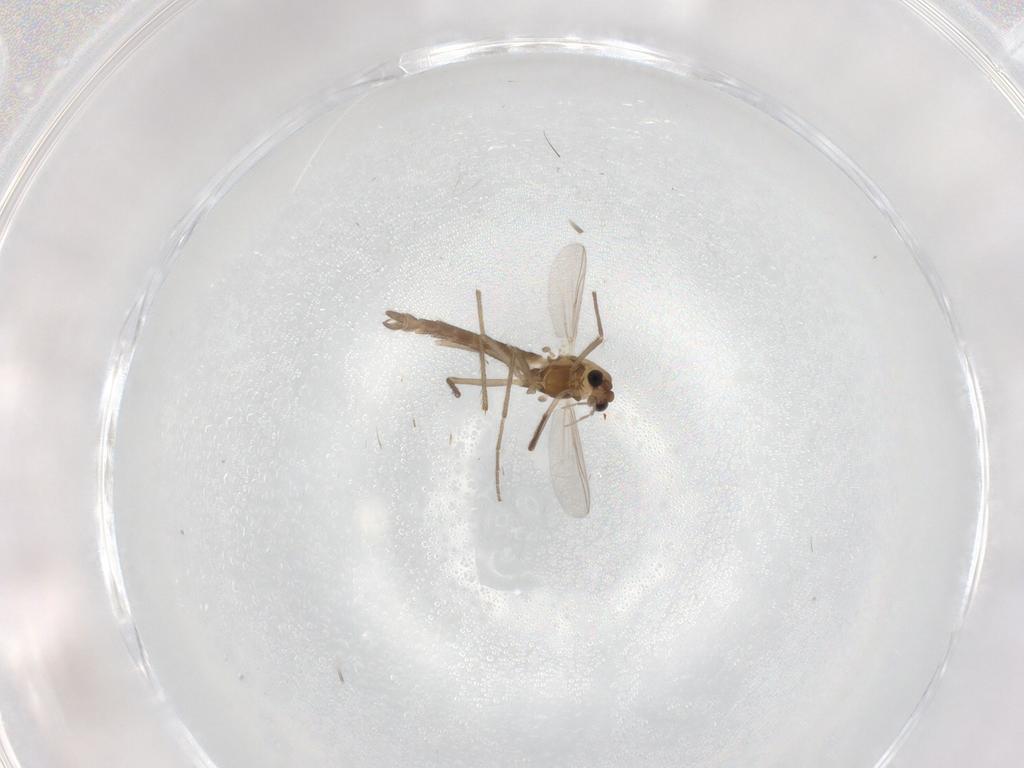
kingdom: Animalia
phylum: Arthropoda
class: Insecta
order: Diptera
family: Chironomidae
